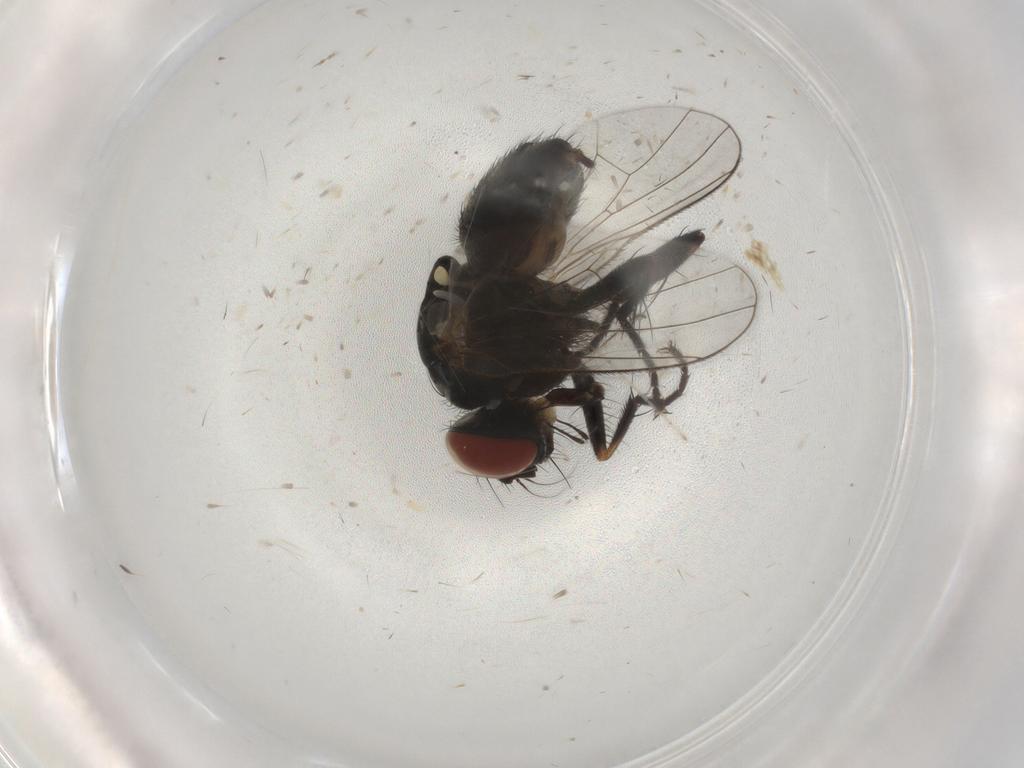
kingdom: Animalia
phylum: Arthropoda
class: Insecta
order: Diptera
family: Muscidae
